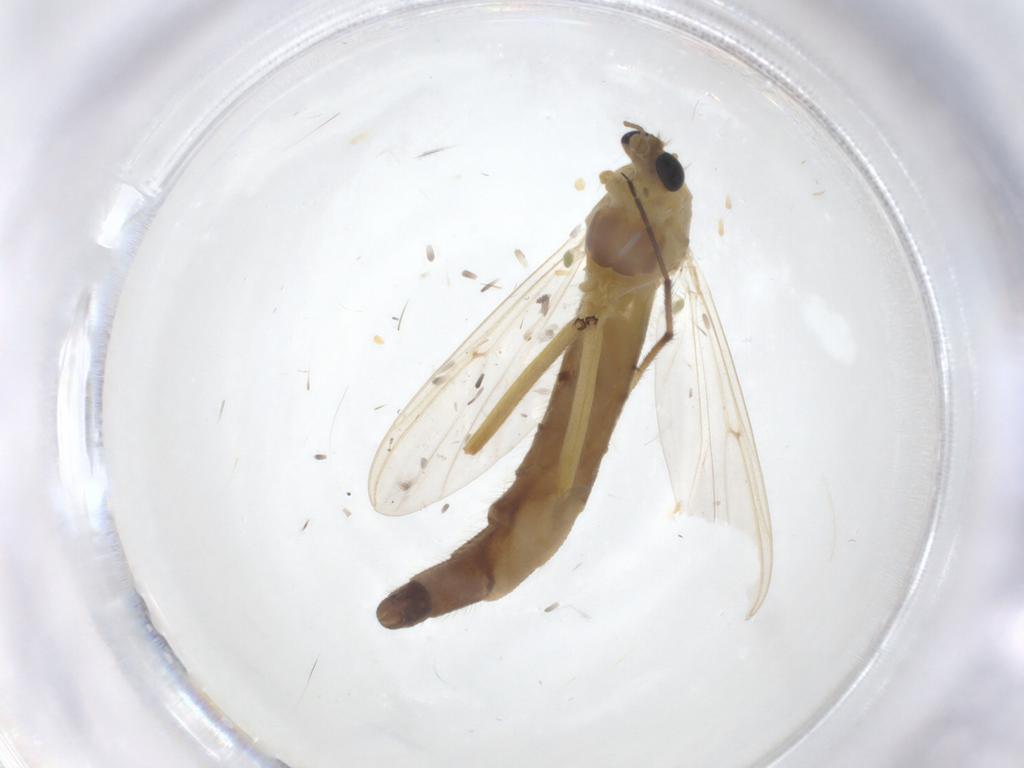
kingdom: Animalia
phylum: Arthropoda
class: Insecta
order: Diptera
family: Chironomidae
